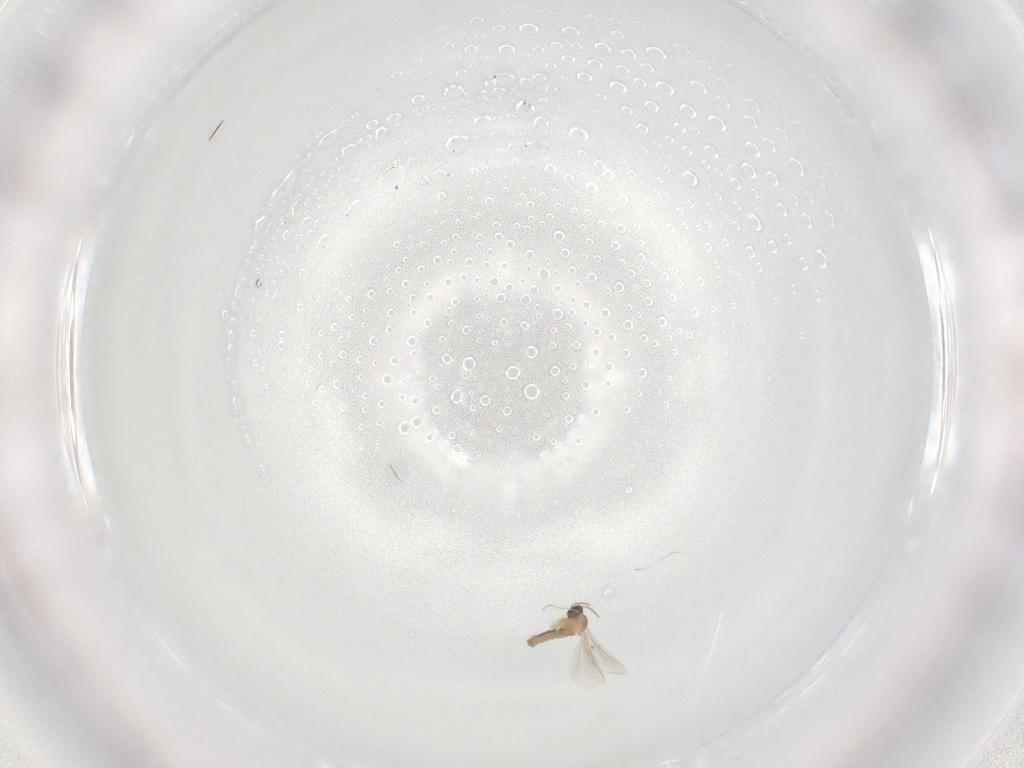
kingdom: Animalia
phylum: Arthropoda
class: Insecta
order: Diptera
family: Cecidomyiidae
